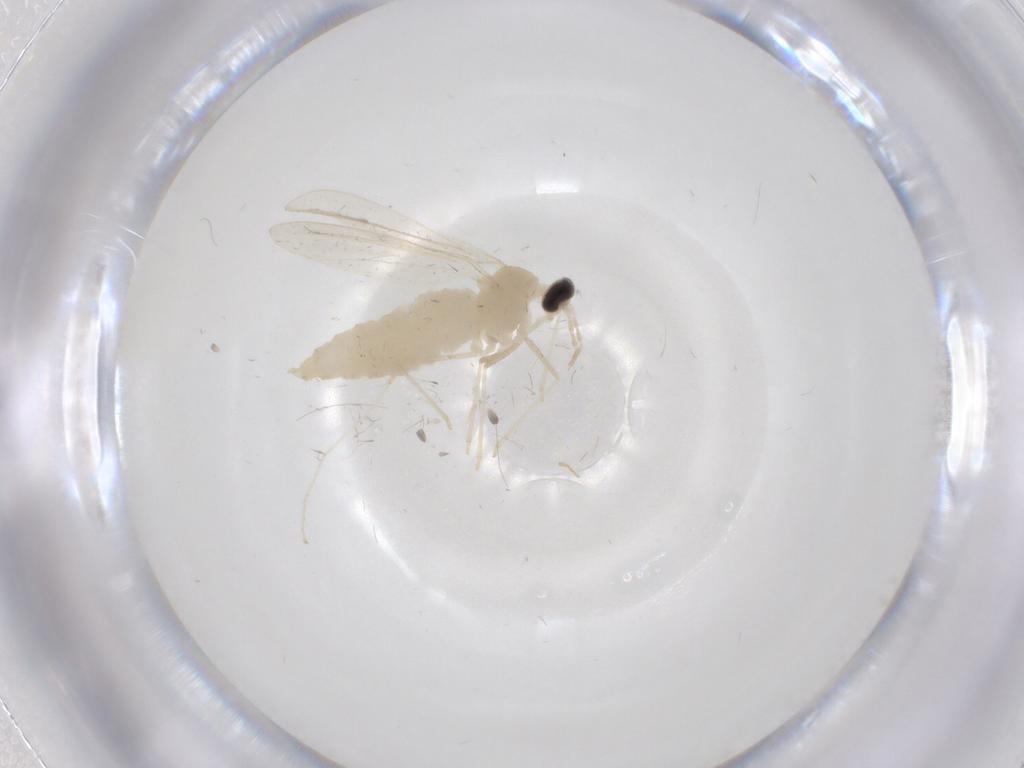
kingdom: Animalia
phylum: Arthropoda
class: Insecta
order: Diptera
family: Cecidomyiidae
